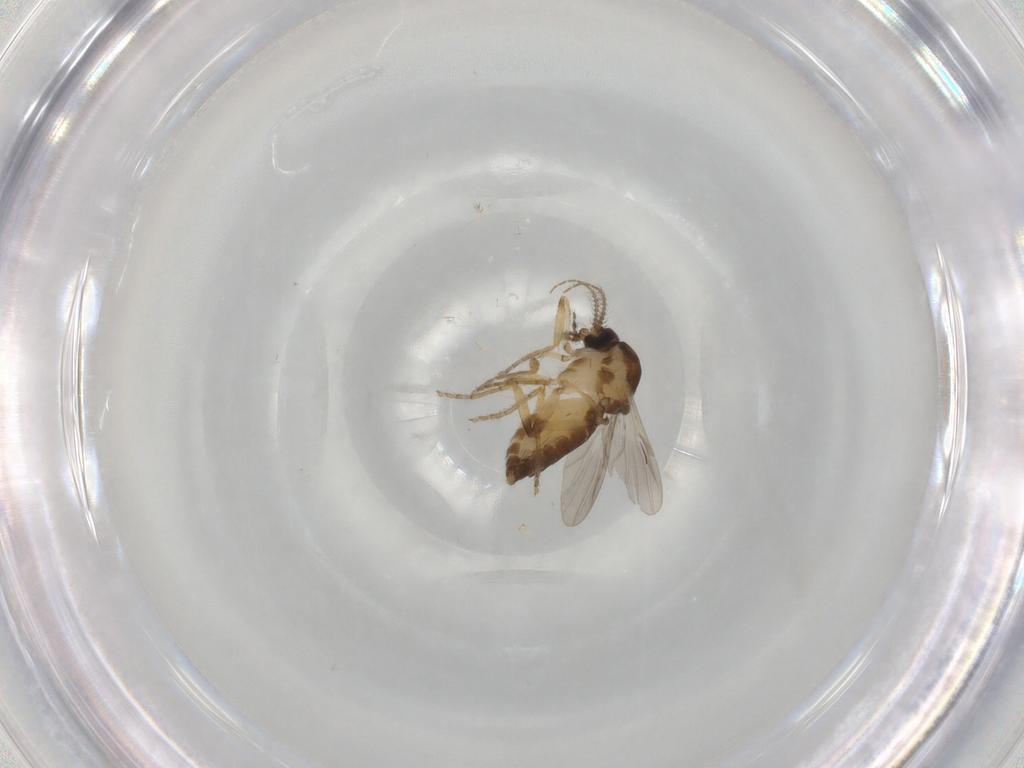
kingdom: Animalia
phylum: Arthropoda
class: Insecta
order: Diptera
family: Ceratopogonidae
